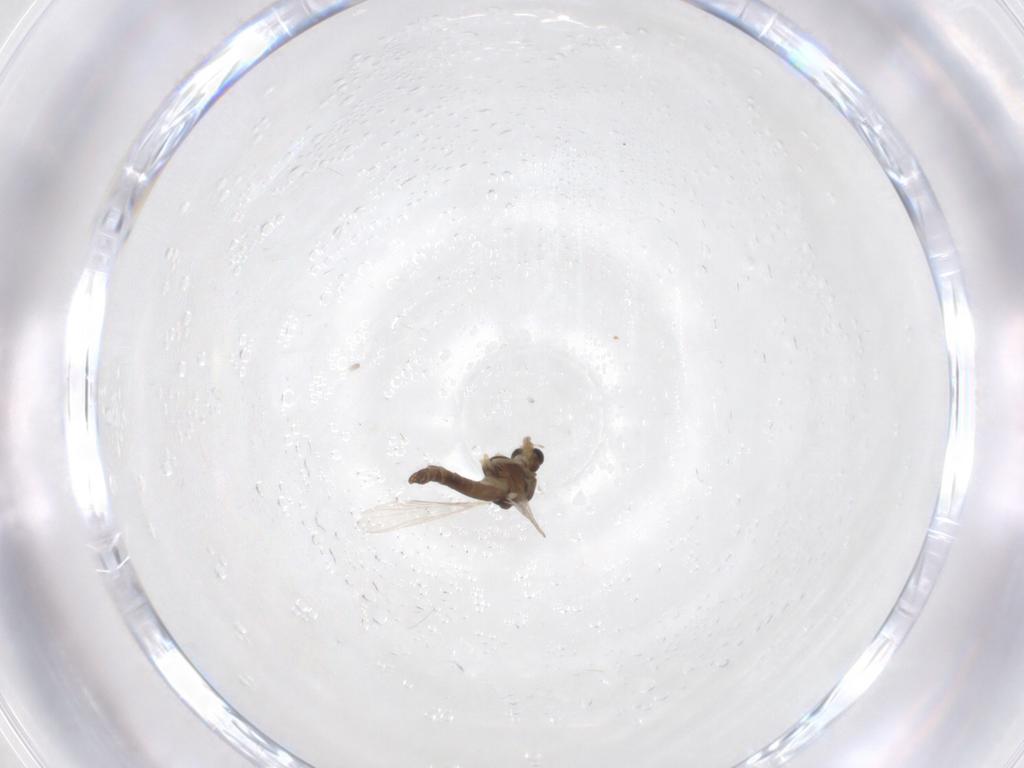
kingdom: Animalia
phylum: Arthropoda
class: Insecta
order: Diptera
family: Chironomidae
